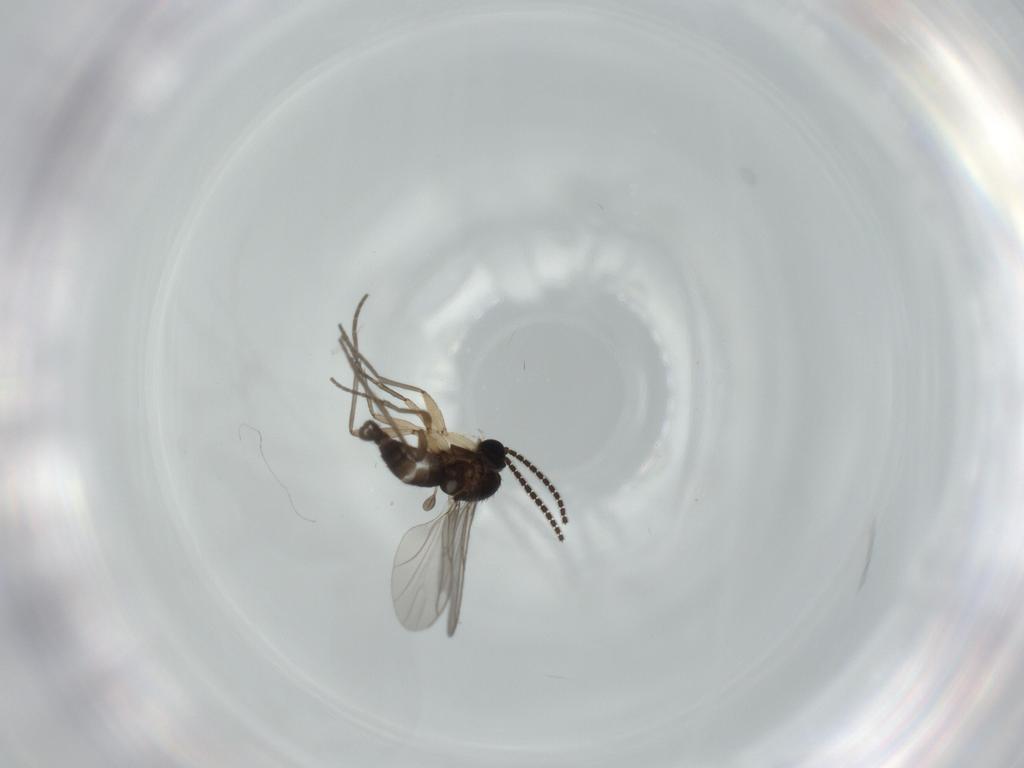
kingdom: Animalia
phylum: Arthropoda
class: Insecta
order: Diptera
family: Sciaridae
